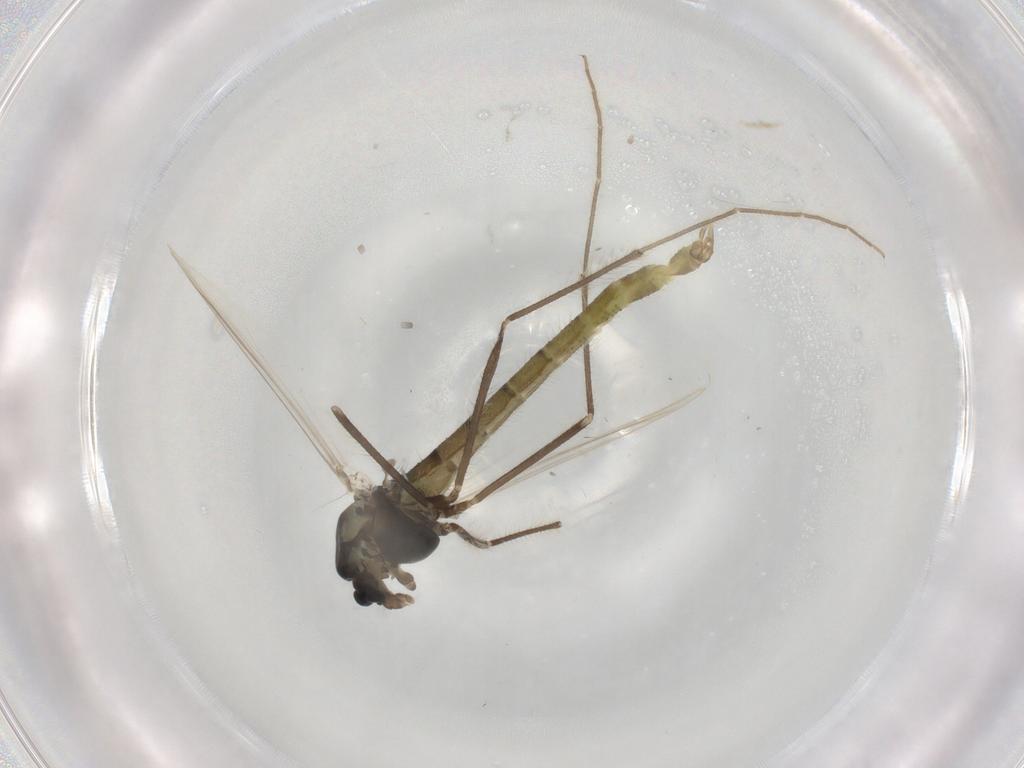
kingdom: Animalia
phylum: Arthropoda
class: Insecta
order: Diptera
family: Chironomidae
